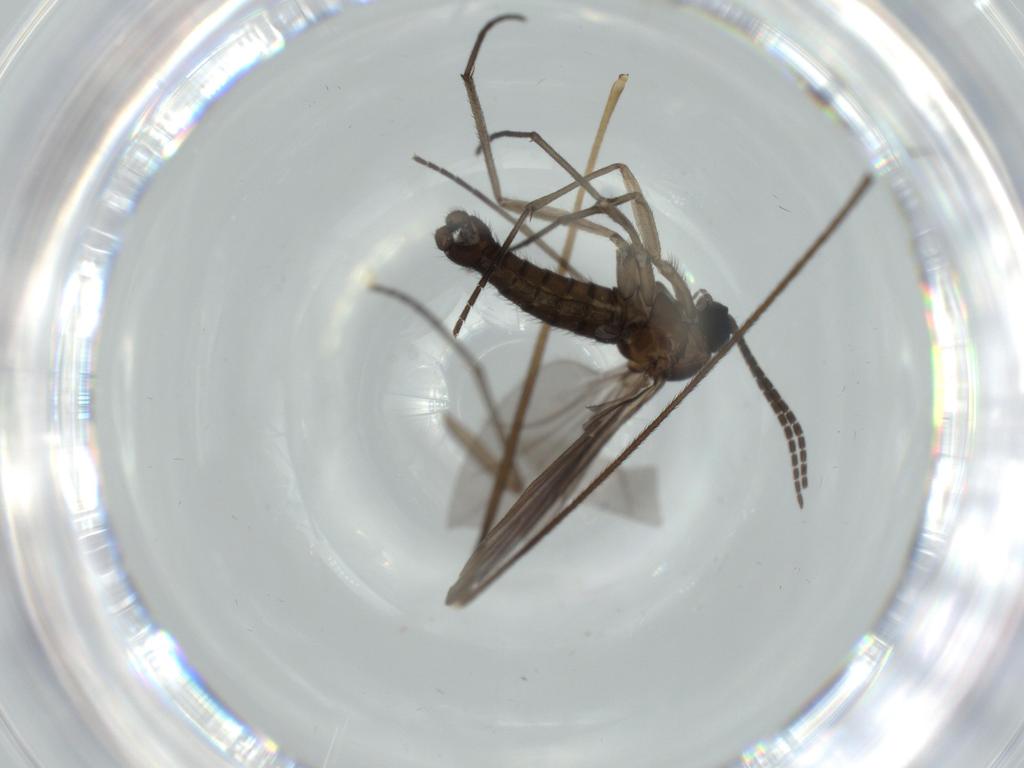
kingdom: Animalia
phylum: Arthropoda
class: Insecta
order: Diptera
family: Sciaridae
